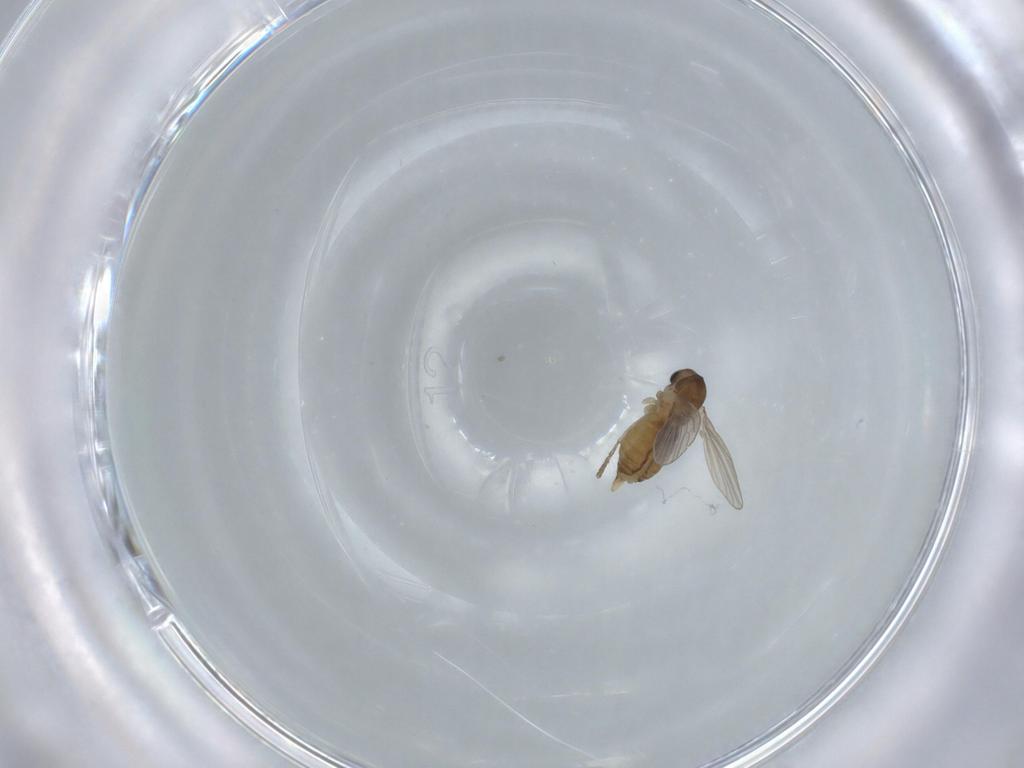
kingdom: Animalia
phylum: Arthropoda
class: Insecta
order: Diptera
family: Psychodidae
